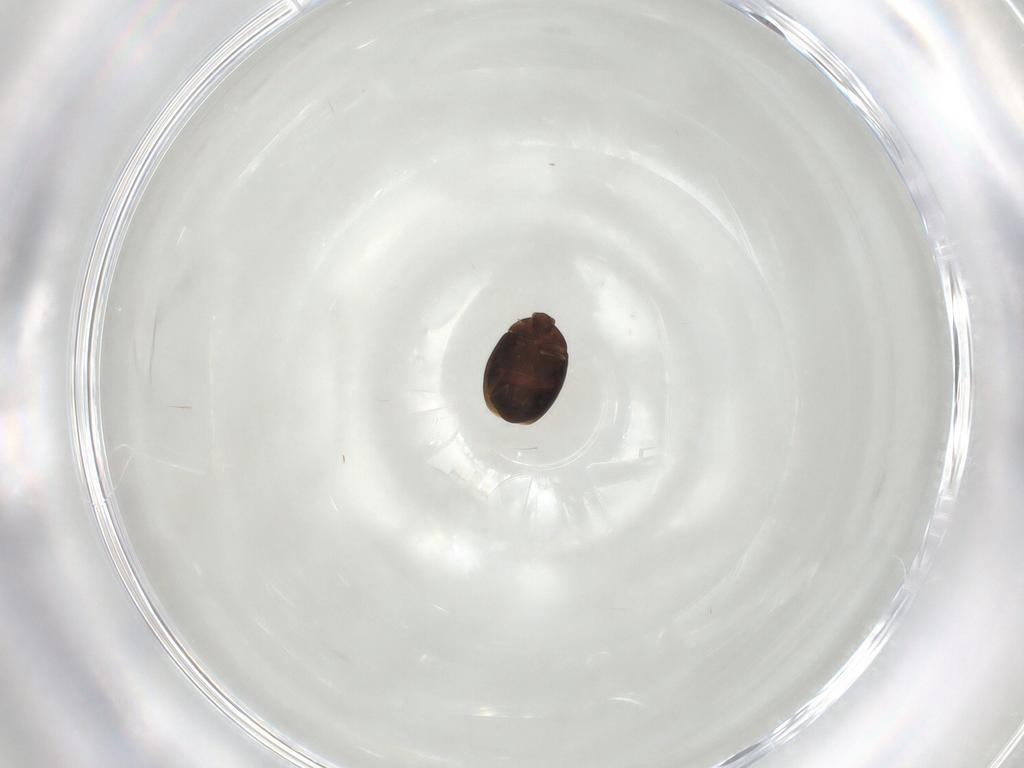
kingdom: Animalia
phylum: Arthropoda
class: Insecta
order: Coleoptera
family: Corylophidae
